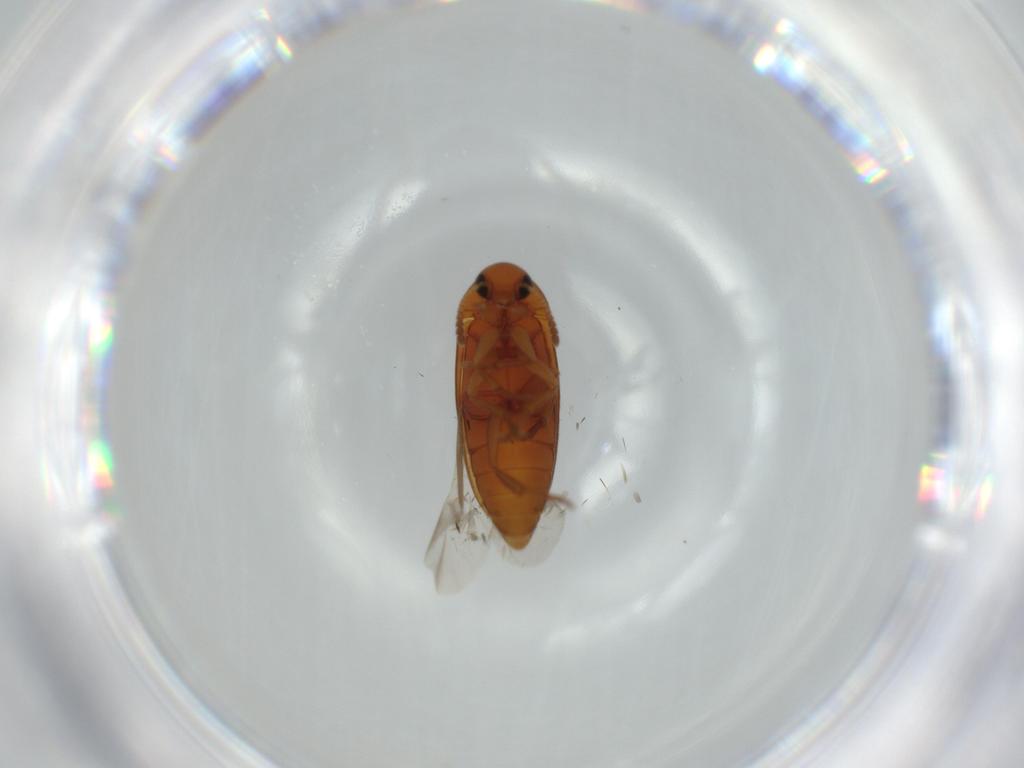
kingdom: Animalia
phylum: Arthropoda
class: Insecta
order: Coleoptera
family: Scraptiidae
